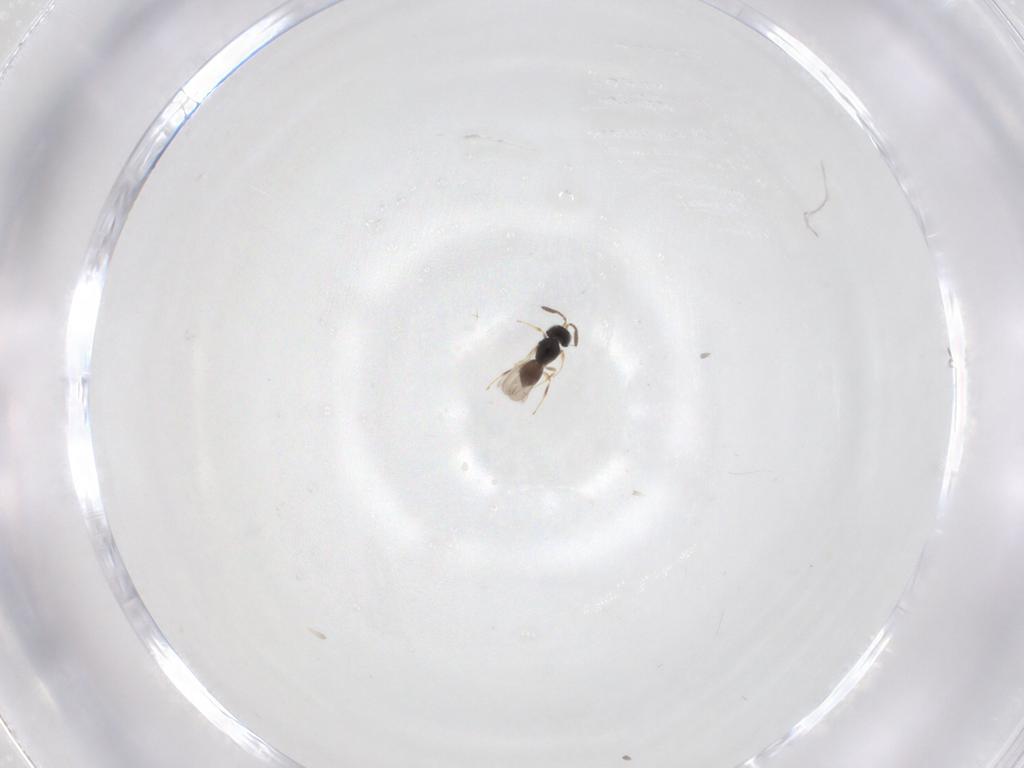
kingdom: Animalia
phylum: Arthropoda
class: Insecta
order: Hymenoptera
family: Scelionidae
